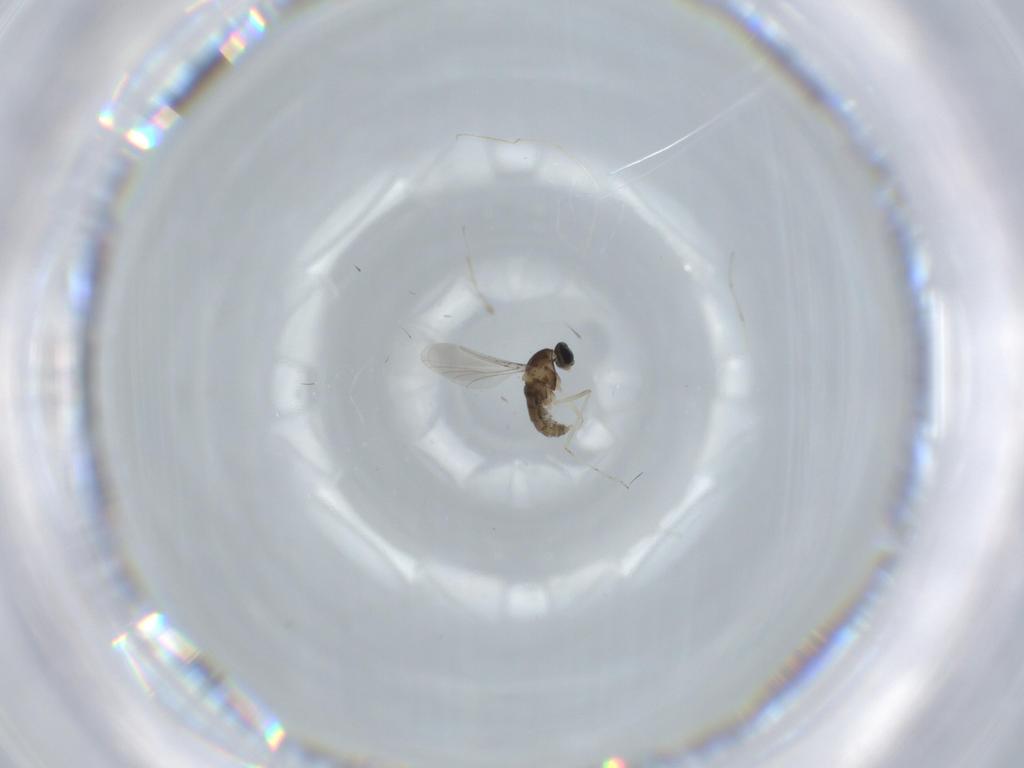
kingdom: Animalia
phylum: Arthropoda
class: Insecta
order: Diptera
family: Cecidomyiidae
